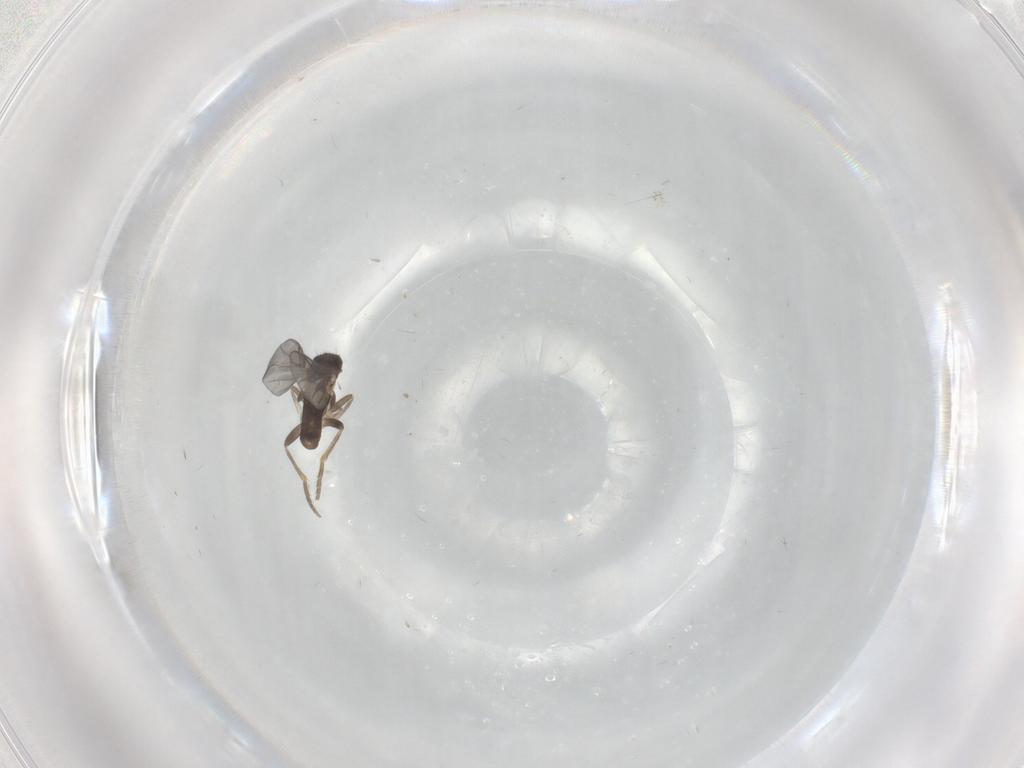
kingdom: Animalia
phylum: Arthropoda
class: Insecta
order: Diptera
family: Cecidomyiidae
